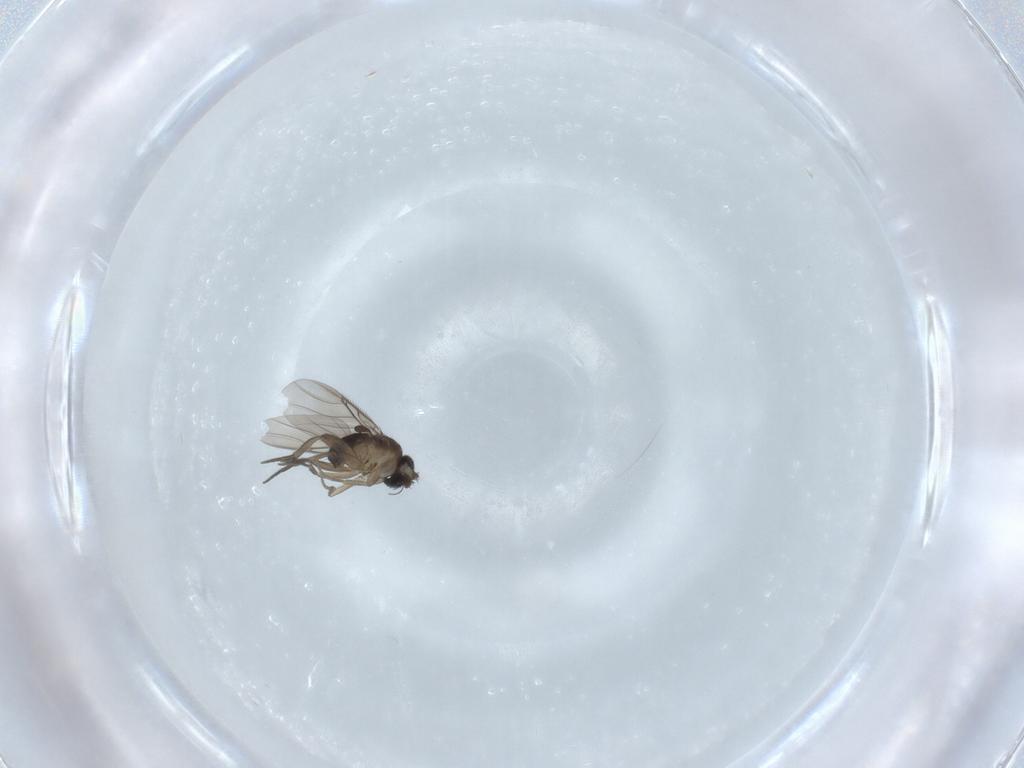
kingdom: Animalia
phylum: Arthropoda
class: Insecta
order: Diptera
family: Phoridae
